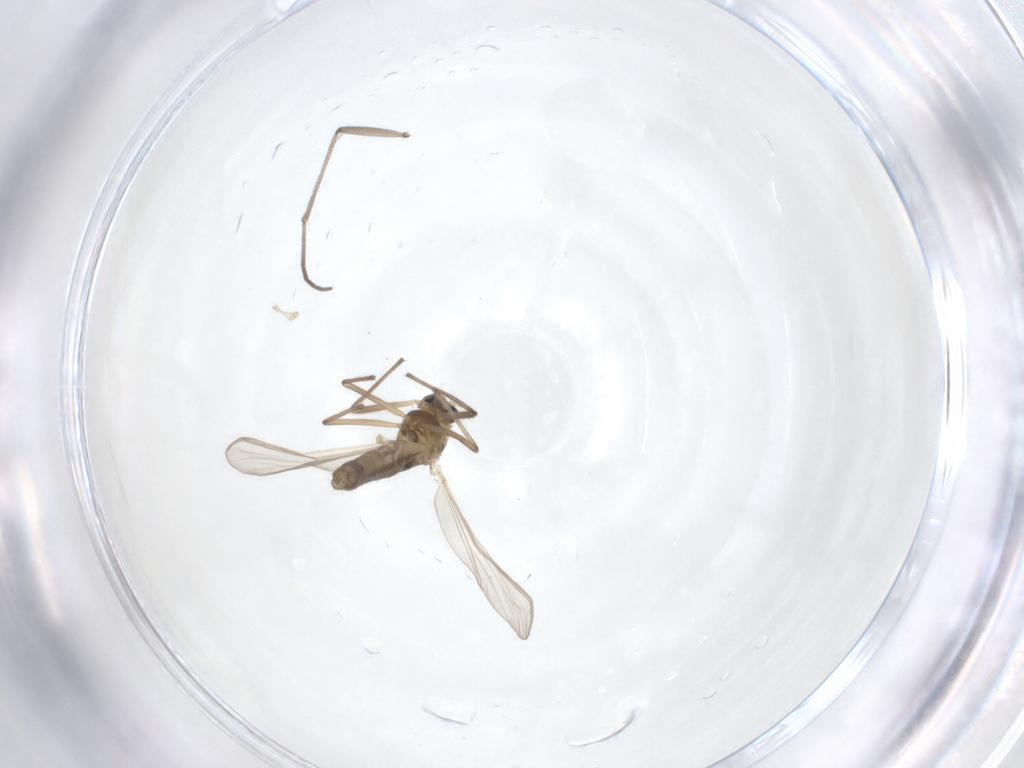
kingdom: Animalia
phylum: Arthropoda
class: Insecta
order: Diptera
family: Chironomidae
